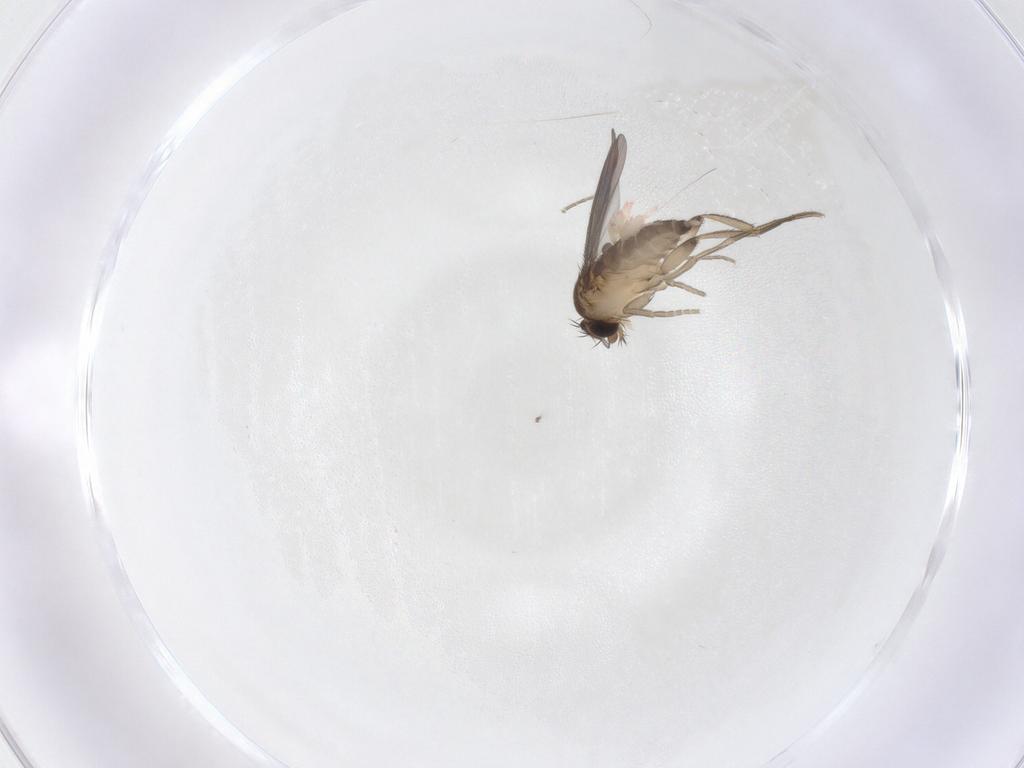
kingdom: Animalia
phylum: Arthropoda
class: Insecta
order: Diptera
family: Phoridae
